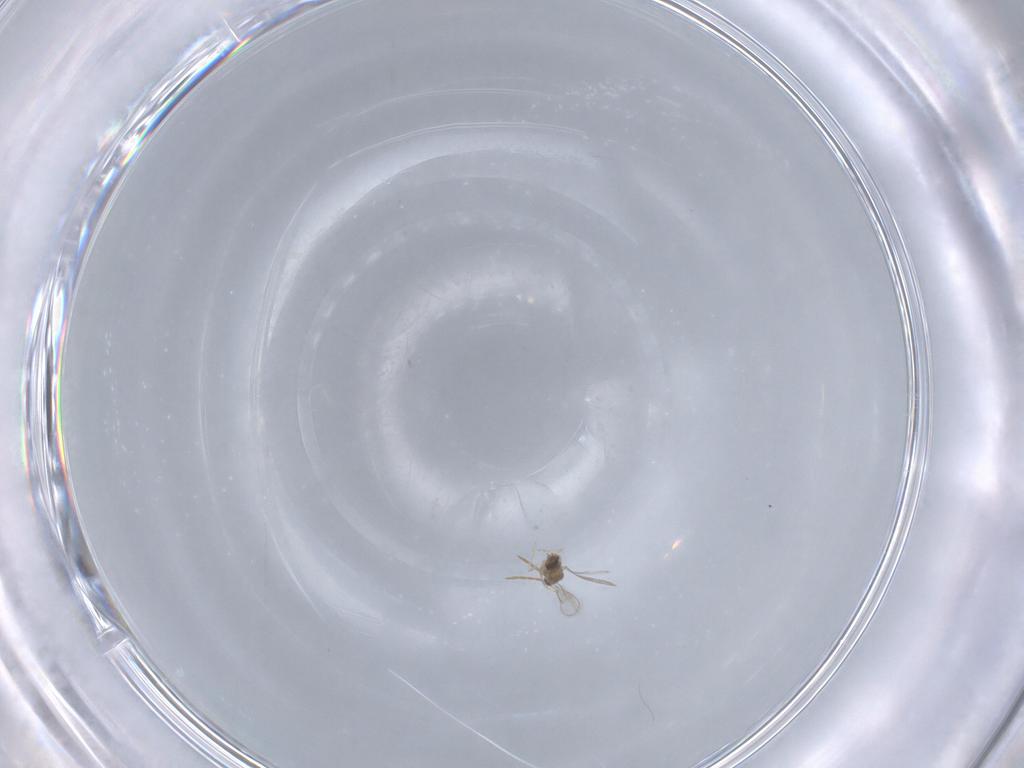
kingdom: Animalia
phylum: Arthropoda
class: Insecta
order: Hymenoptera
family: Aphelinidae
